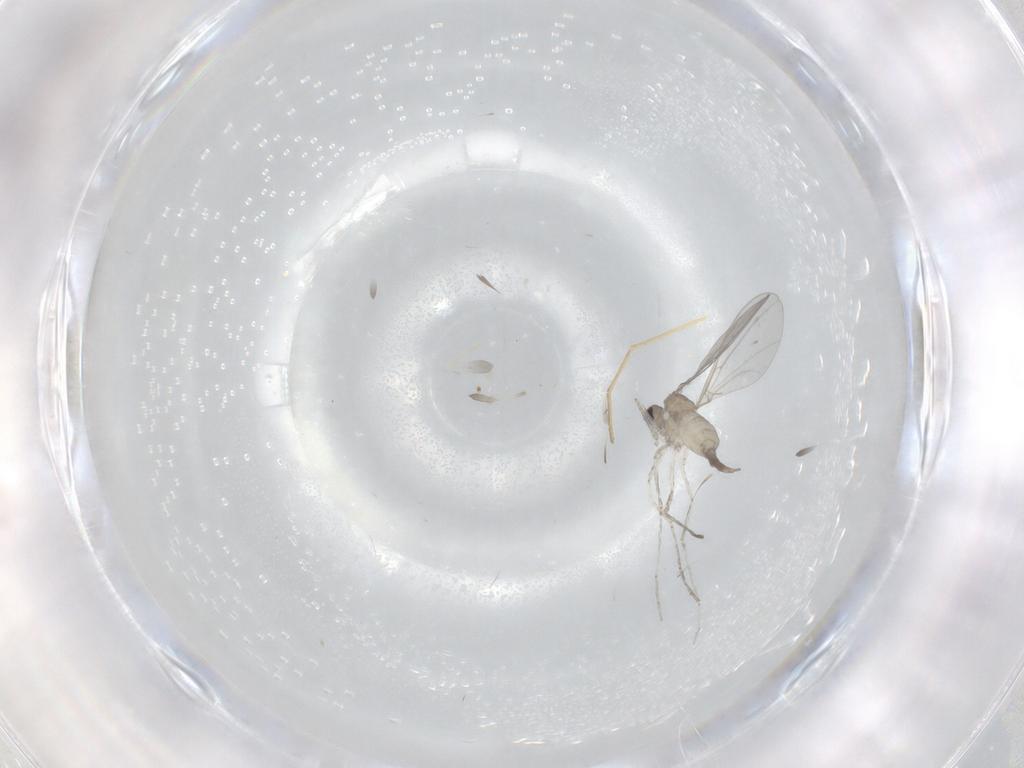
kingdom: Animalia
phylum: Arthropoda
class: Insecta
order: Diptera
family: Cecidomyiidae
